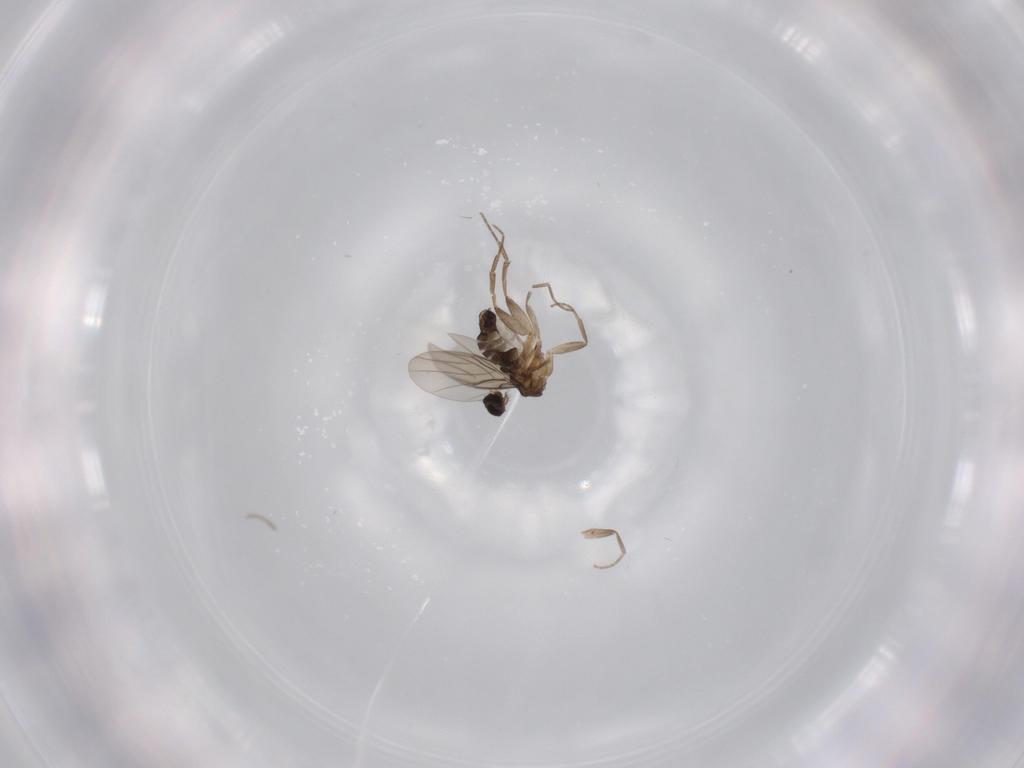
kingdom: Animalia
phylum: Arthropoda
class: Insecta
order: Diptera
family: Phoridae
